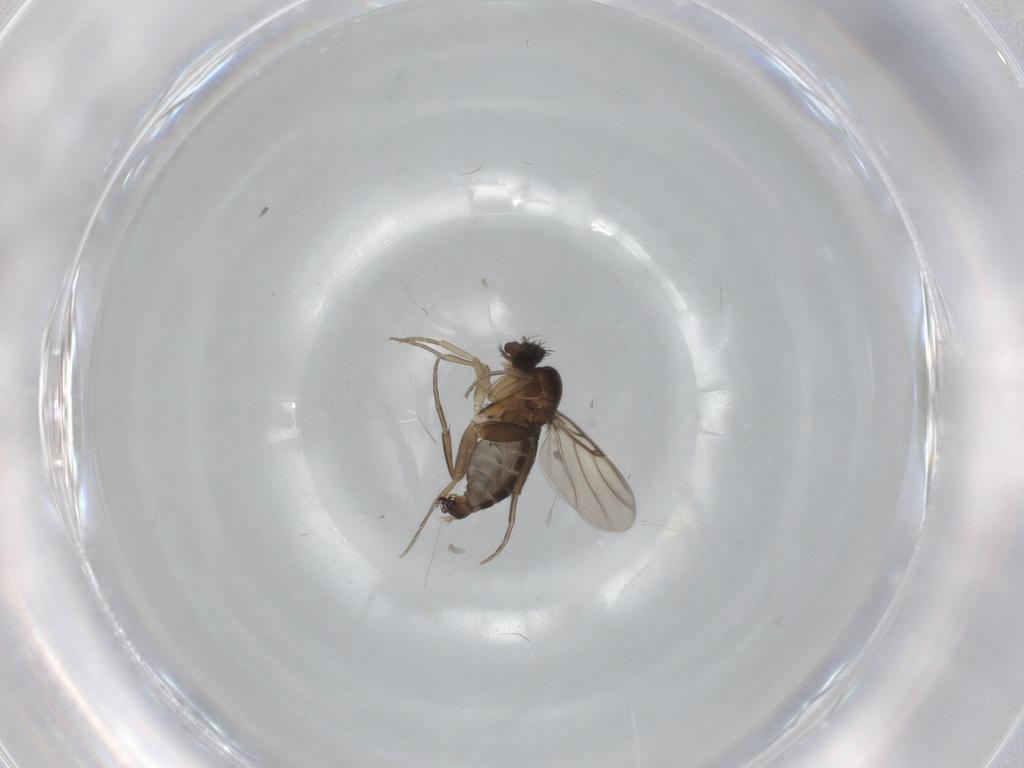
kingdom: Animalia
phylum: Arthropoda
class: Insecta
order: Diptera
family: Phoridae
